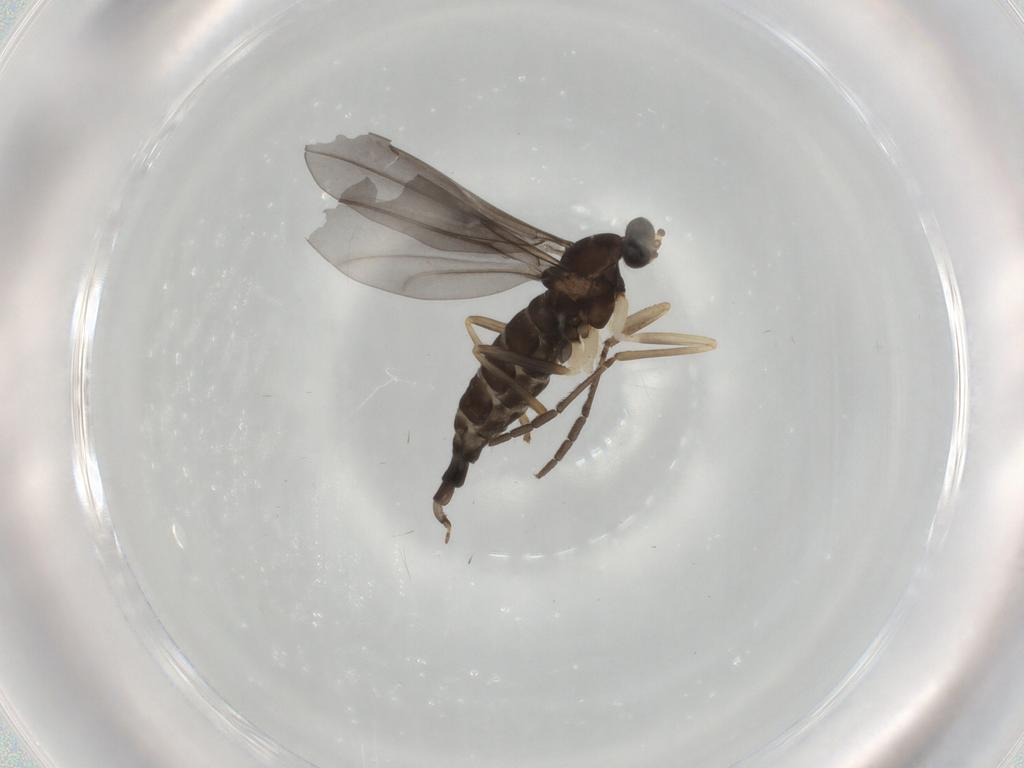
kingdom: Animalia
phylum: Arthropoda
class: Insecta
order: Diptera
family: Cecidomyiidae
